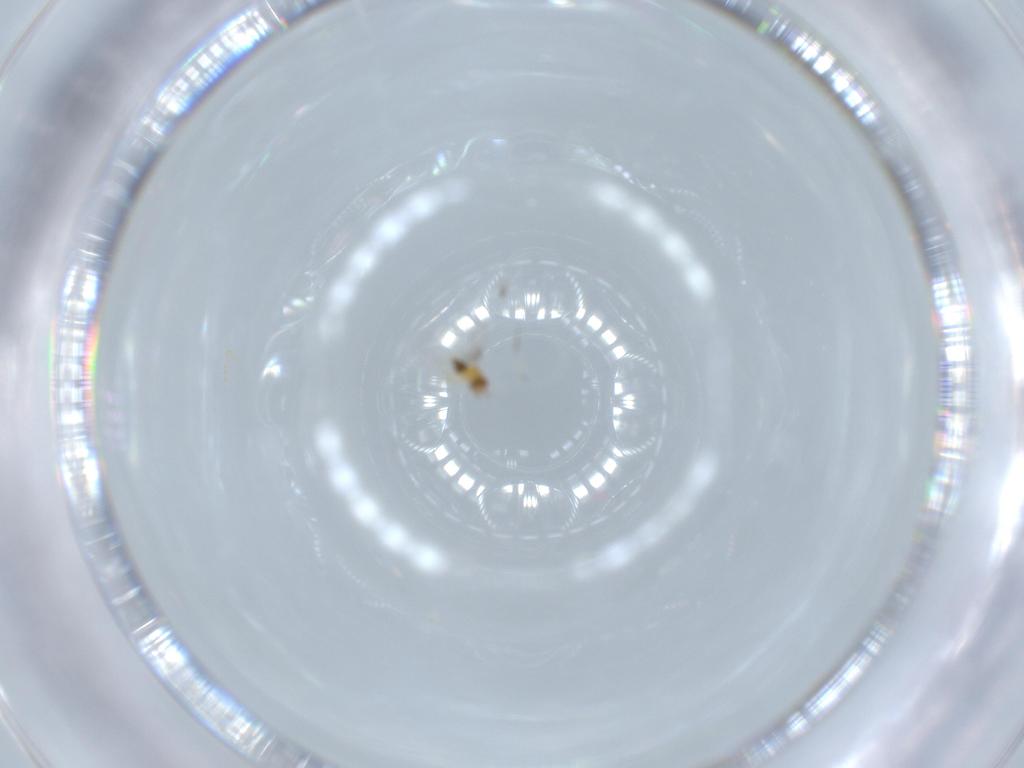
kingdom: Animalia
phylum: Arthropoda
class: Insecta
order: Hymenoptera
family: Trichogrammatidae
